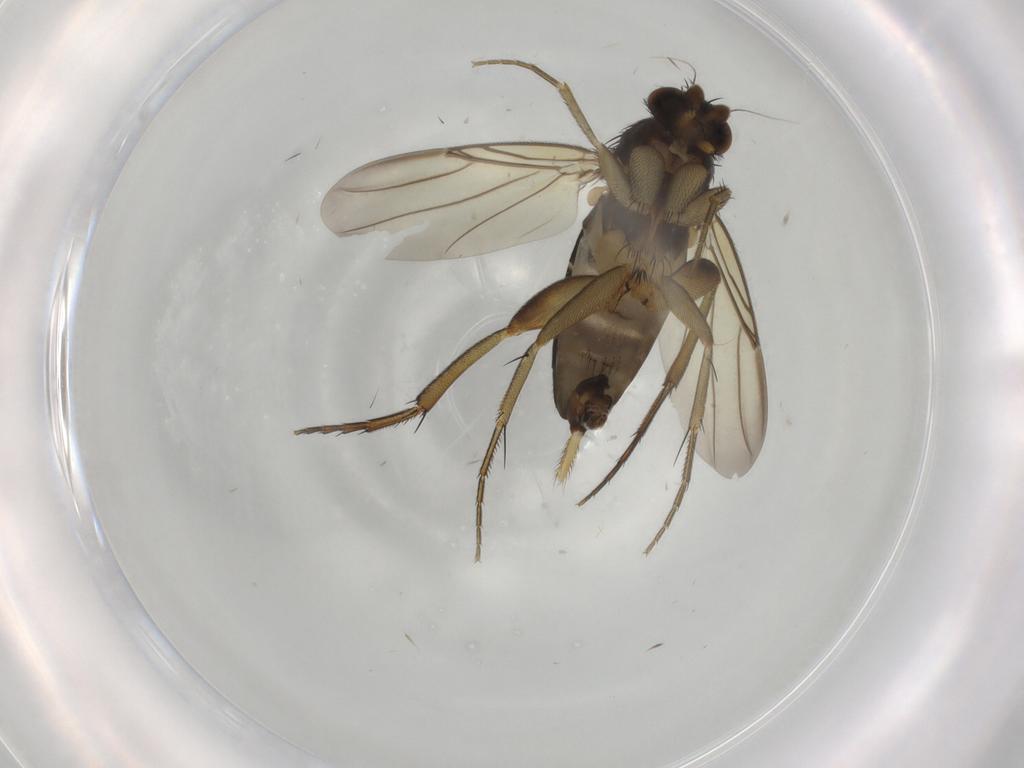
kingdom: Animalia
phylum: Arthropoda
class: Insecta
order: Diptera
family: Phoridae
